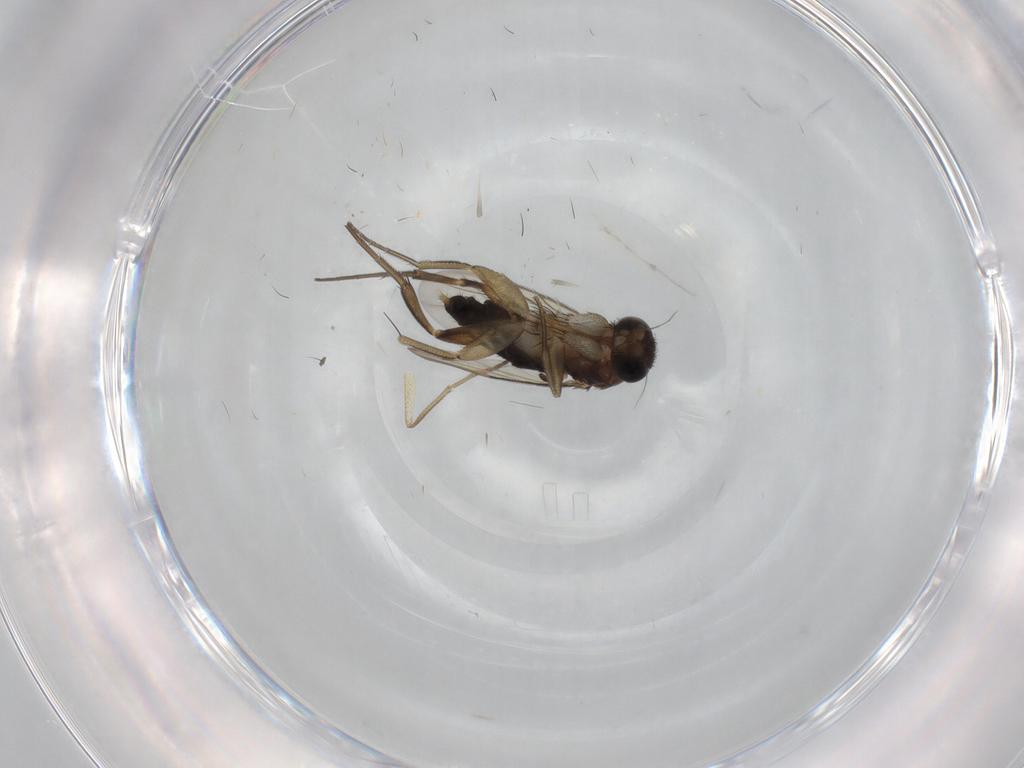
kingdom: Animalia
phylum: Arthropoda
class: Insecta
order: Diptera
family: Phoridae
